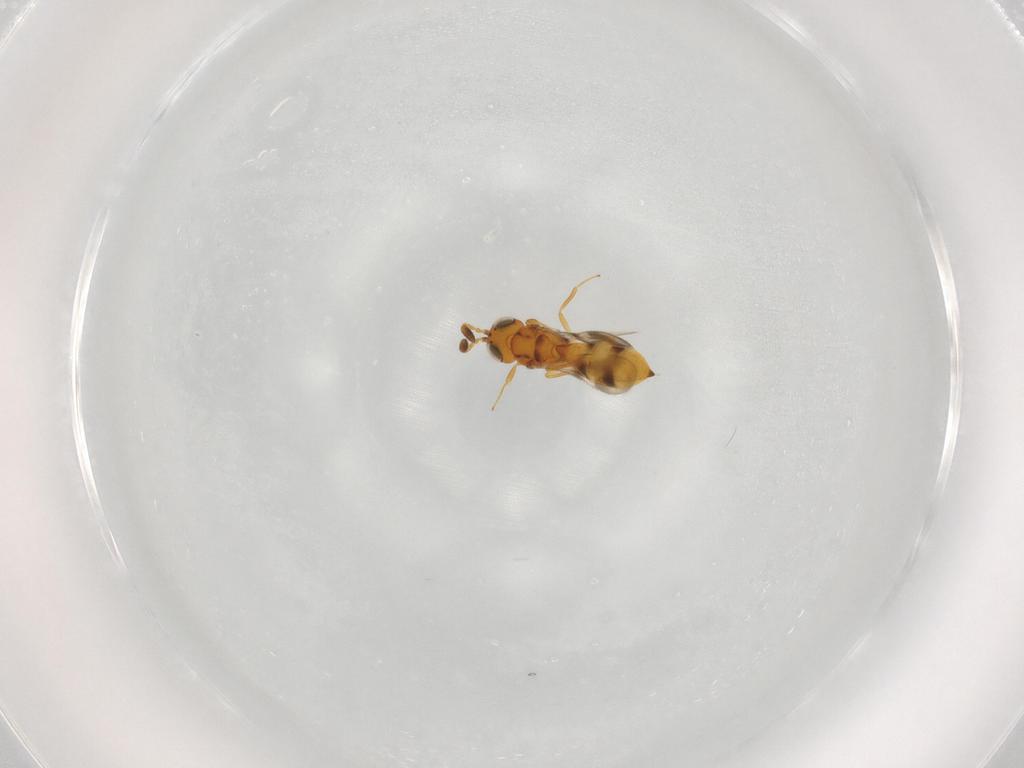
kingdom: Animalia
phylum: Arthropoda
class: Insecta
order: Hymenoptera
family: Scelionidae
